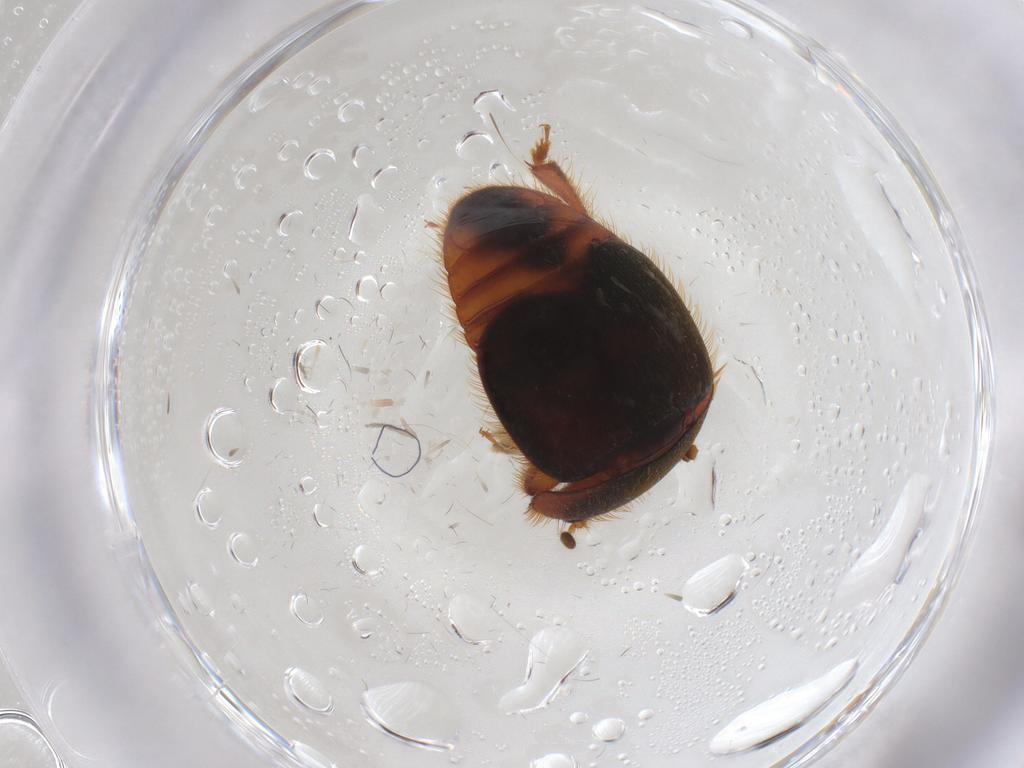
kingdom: Animalia
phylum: Arthropoda
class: Insecta
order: Coleoptera
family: Nitidulidae
